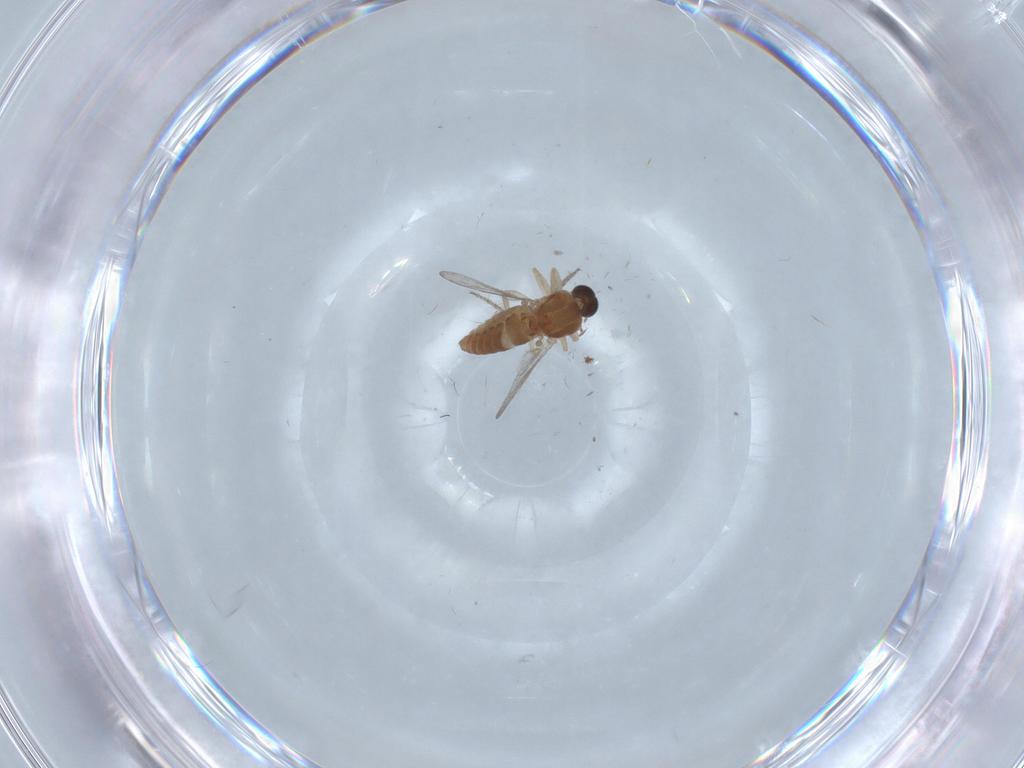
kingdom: Animalia
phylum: Arthropoda
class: Insecta
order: Diptera
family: Ceratopogonidae
